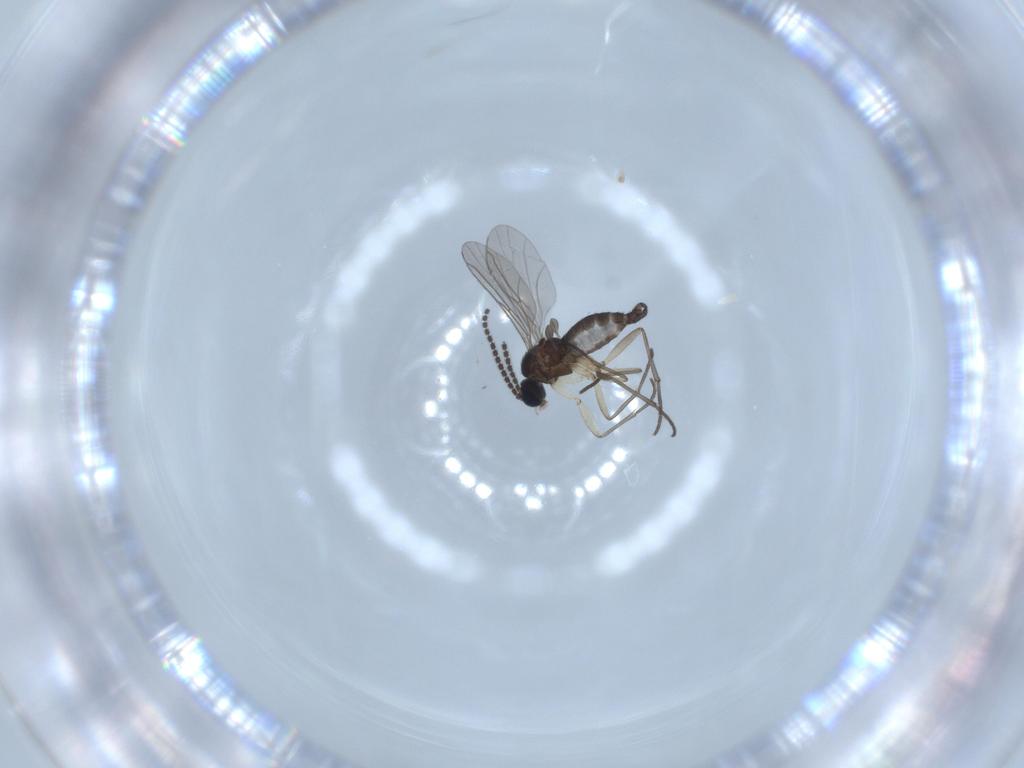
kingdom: Animalia
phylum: Arthropoda
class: Insecta
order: Diptera
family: Sciaridae
